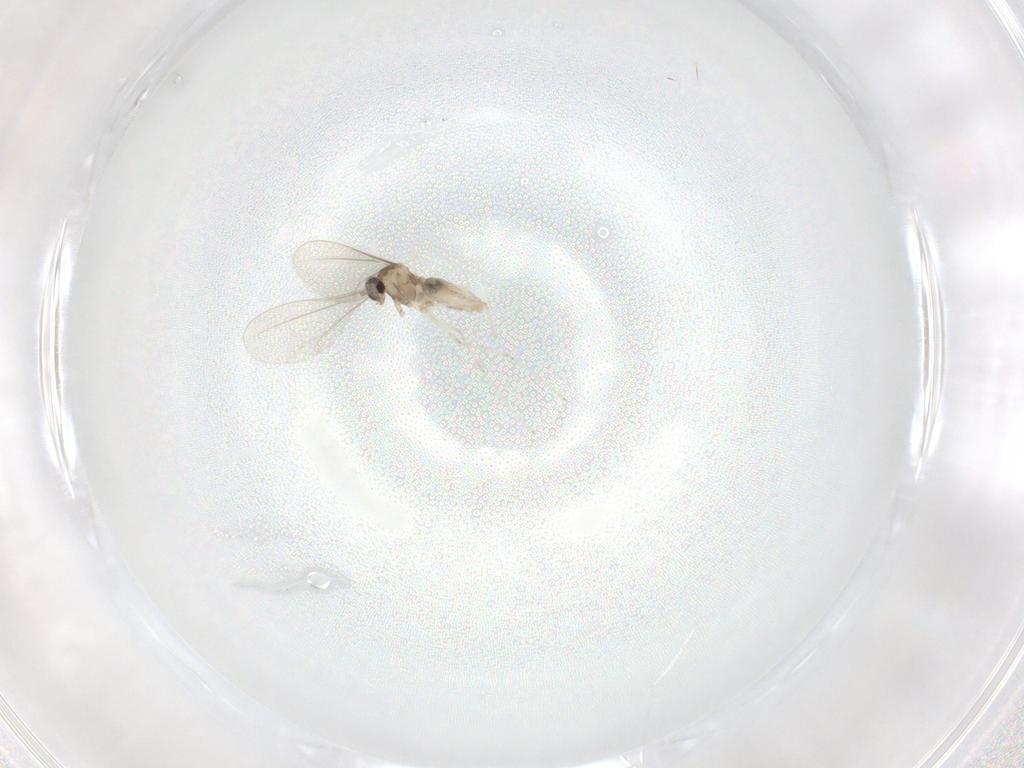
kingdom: Animalia
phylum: Arthropoda
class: Insecta
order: Diptera
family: Cecidomyiidae
